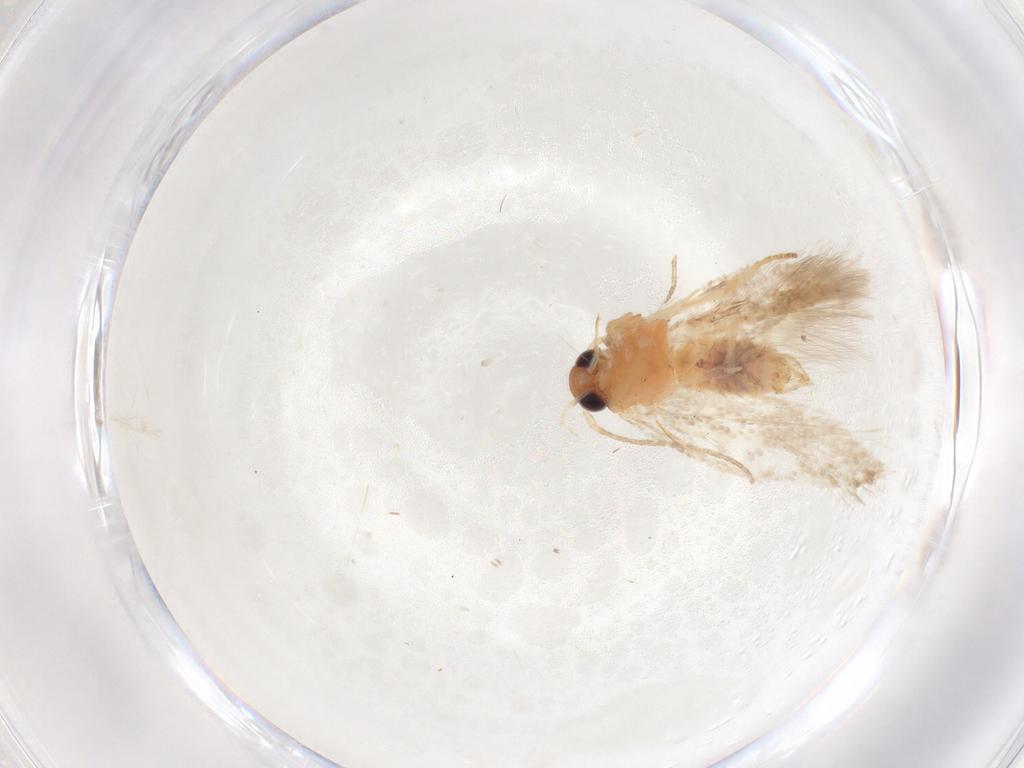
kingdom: Animalia
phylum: Arthropoda
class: Insecta
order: Lepidoptera
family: Gelechiidae
